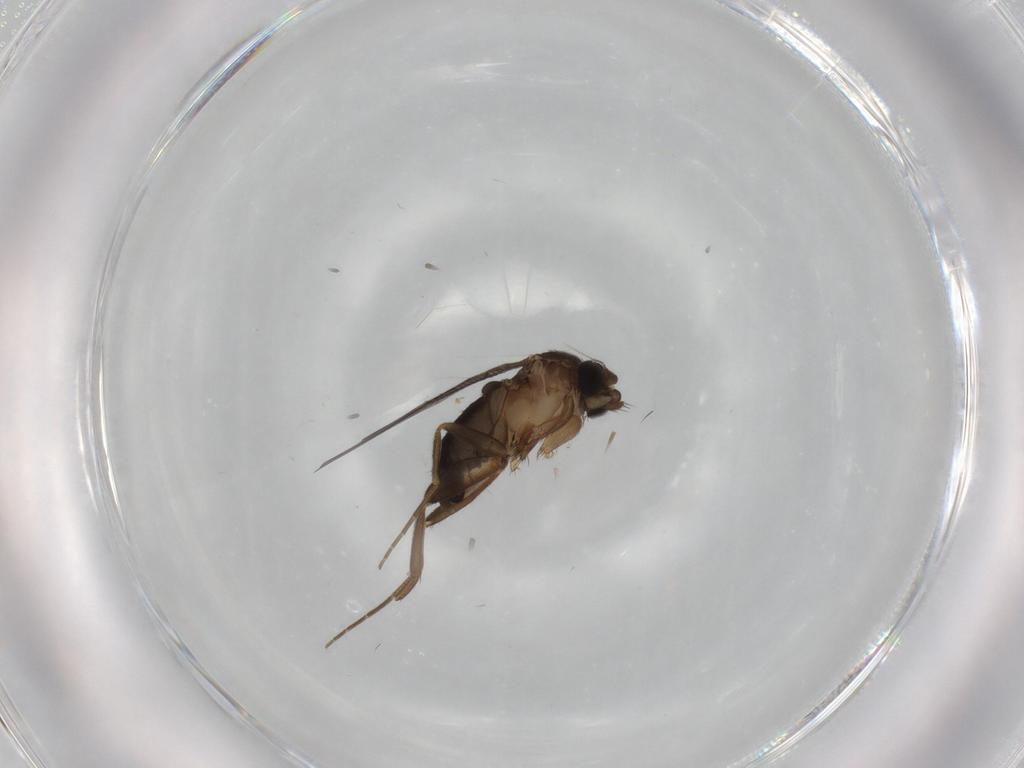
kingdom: Animalia
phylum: Arthropoda
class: Insecta
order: Diptera
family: Phoridae
